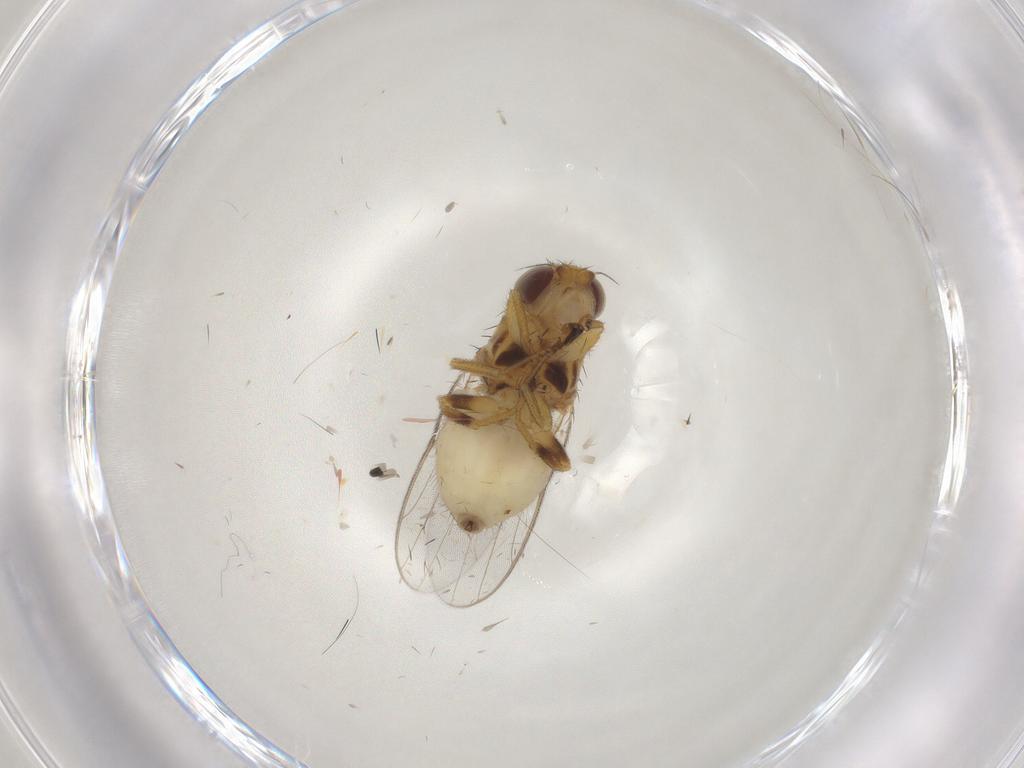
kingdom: Animalia
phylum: Arthropoda
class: Insecta
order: Diptera
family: Chloropidae
